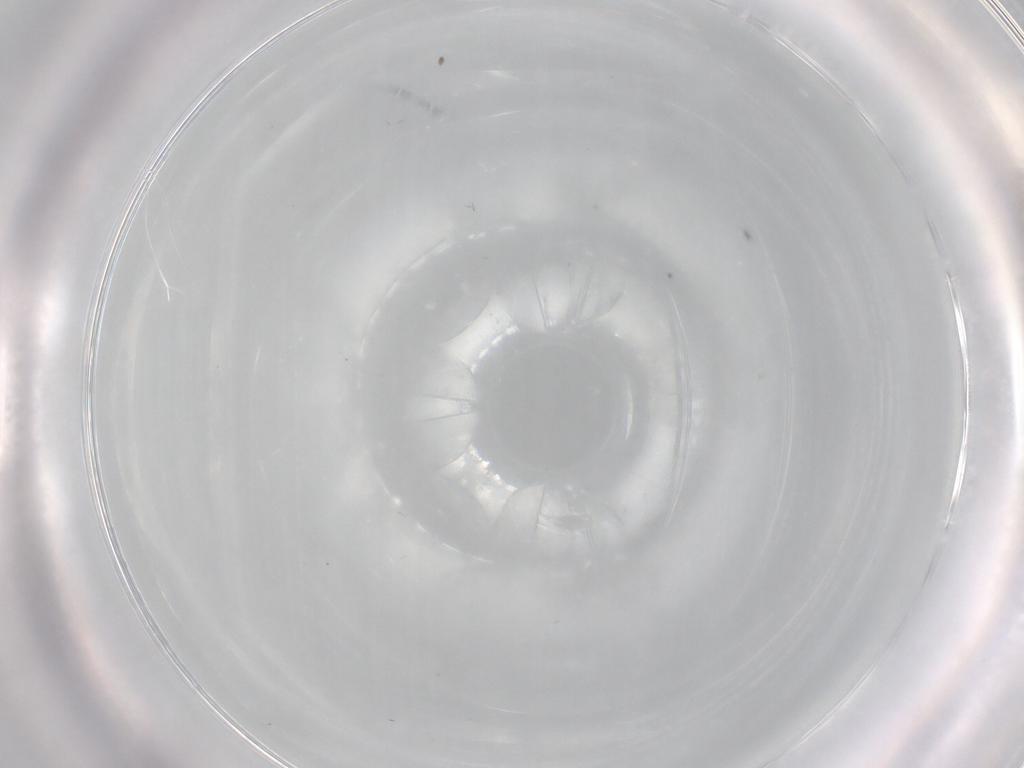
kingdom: Animalia
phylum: Arthropoda
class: Insecta
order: Diptera
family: Cecidomyiidae
